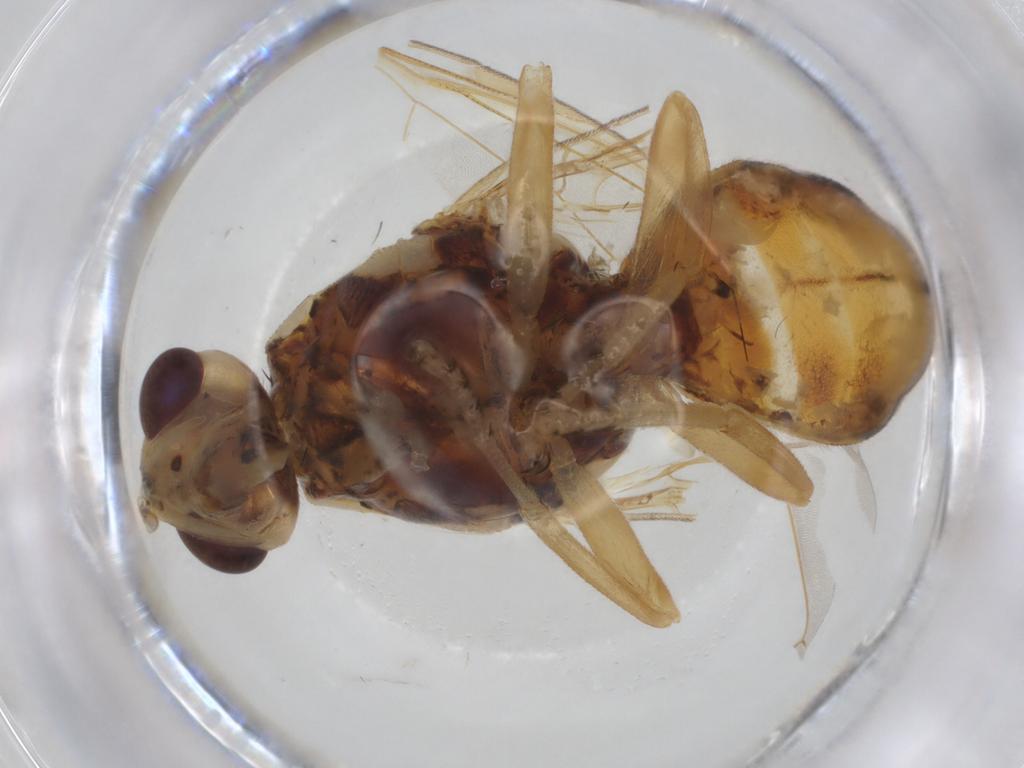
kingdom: Animalia
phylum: Arthropoda
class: Insecta
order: Diptera
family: Tephritidae
